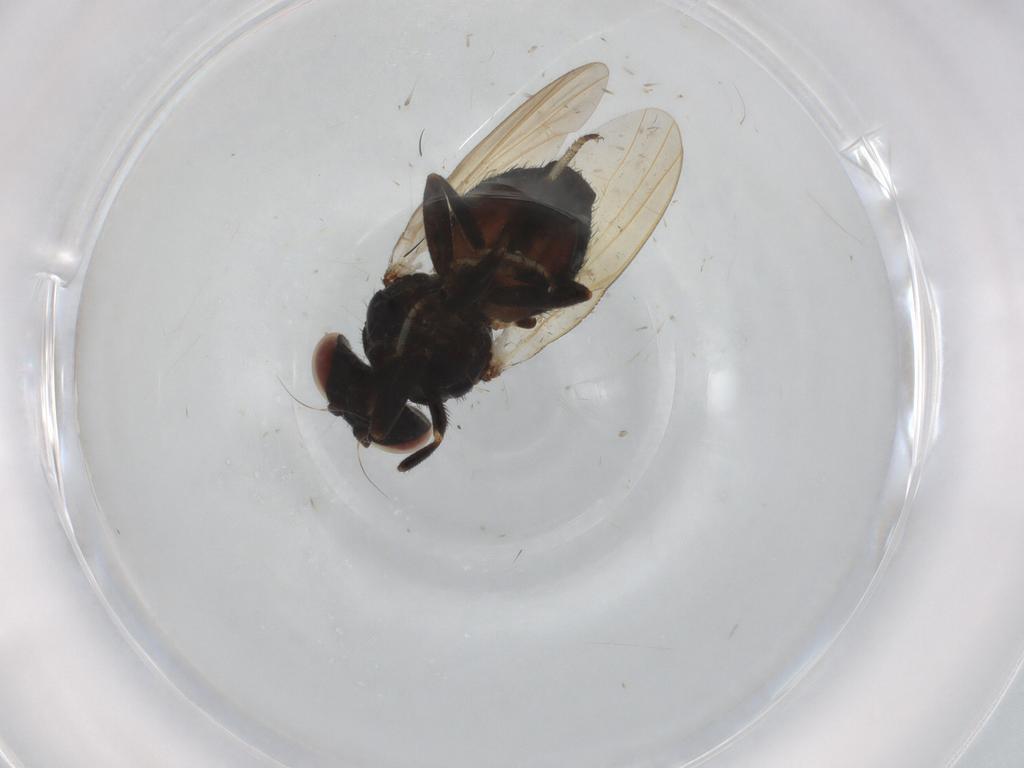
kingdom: Animalia
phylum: Arthropoda
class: Insecta
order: Diptera
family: Lonchaeidae
